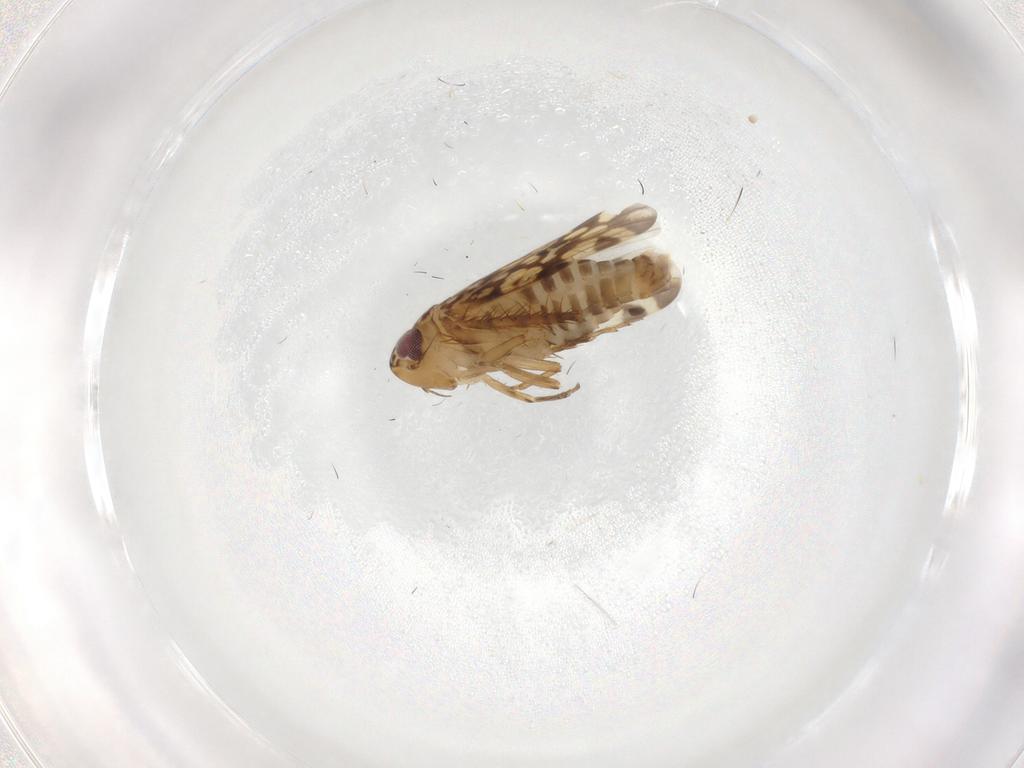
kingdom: Animalia
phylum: Arthropoda
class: Insecta
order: Hemiptera
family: Cicadellidae
